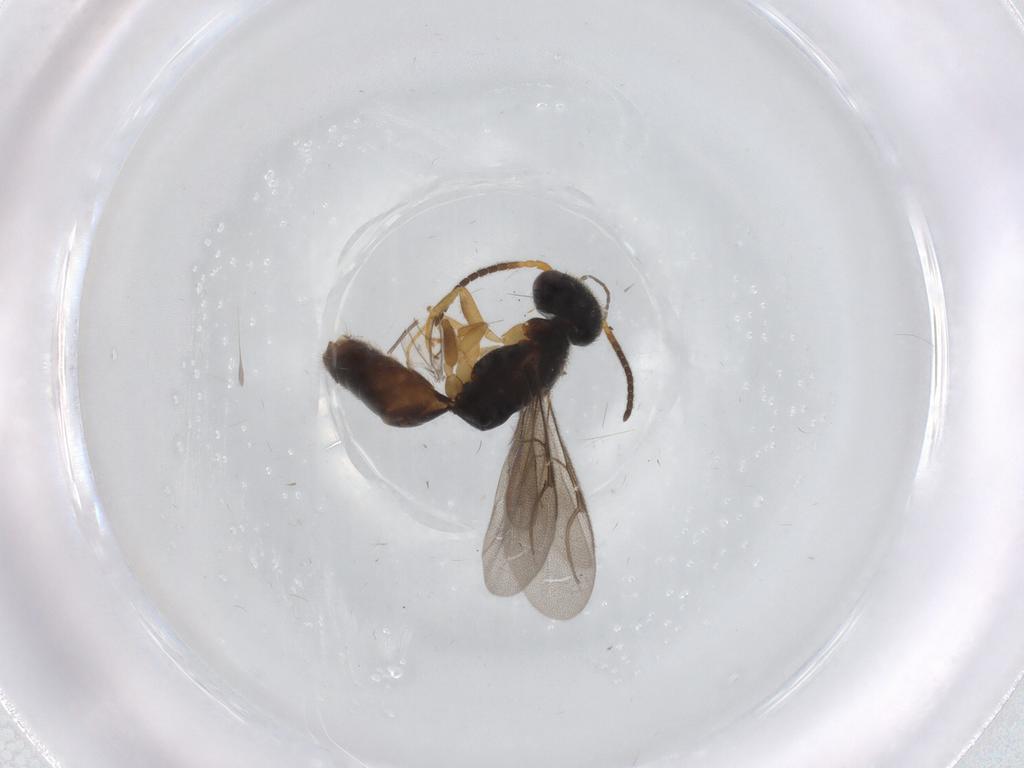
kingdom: Animalia
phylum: Arthropoda
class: Insecta
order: Hymenoptera
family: Bethylidae
